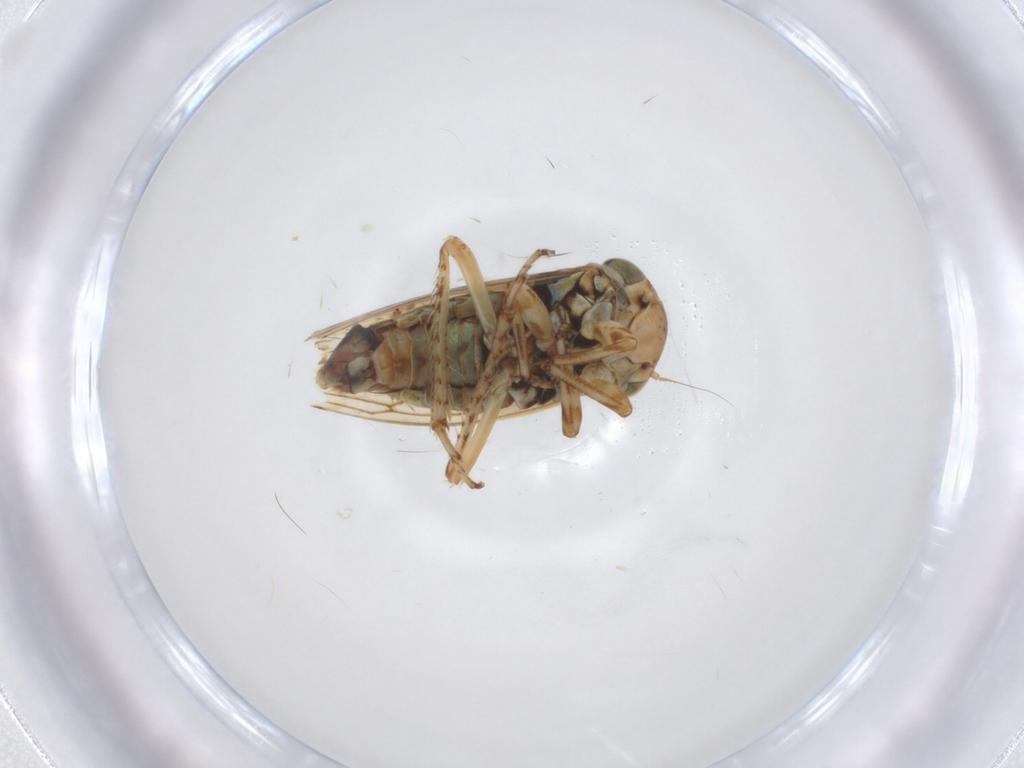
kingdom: Animalia
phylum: Arthropoda
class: Insecta
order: Hemiptera
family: Cicadellidae
